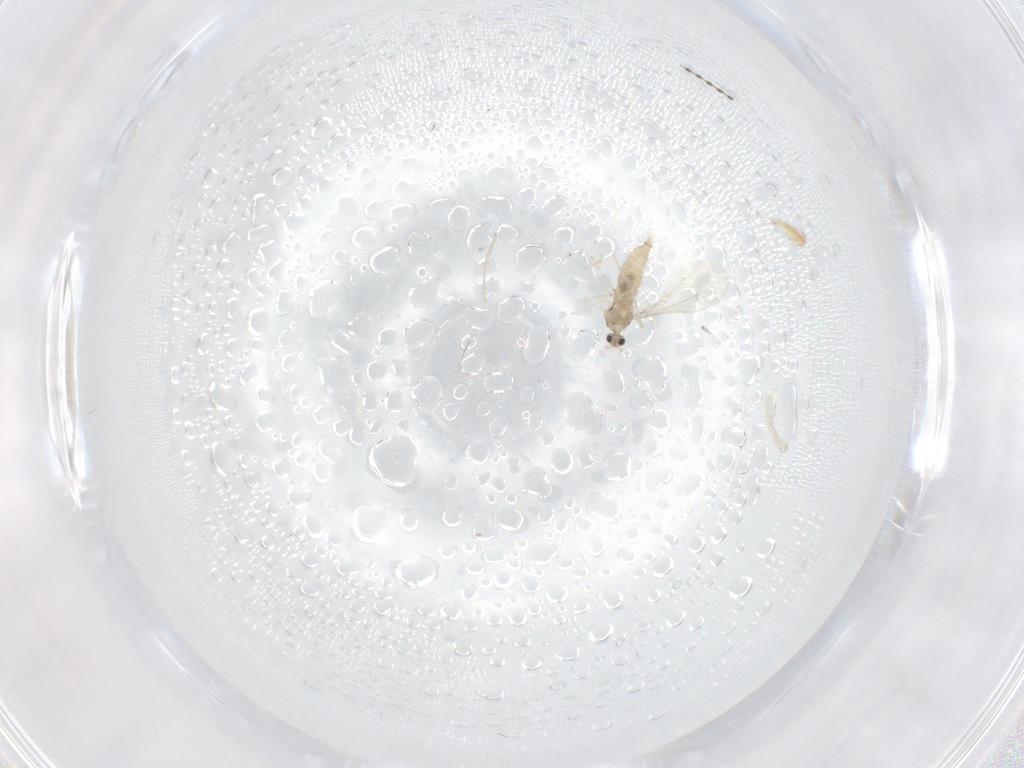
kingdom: Animalia
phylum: Arthropoda
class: Insecta
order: Diptera
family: Cecidomyiidae
